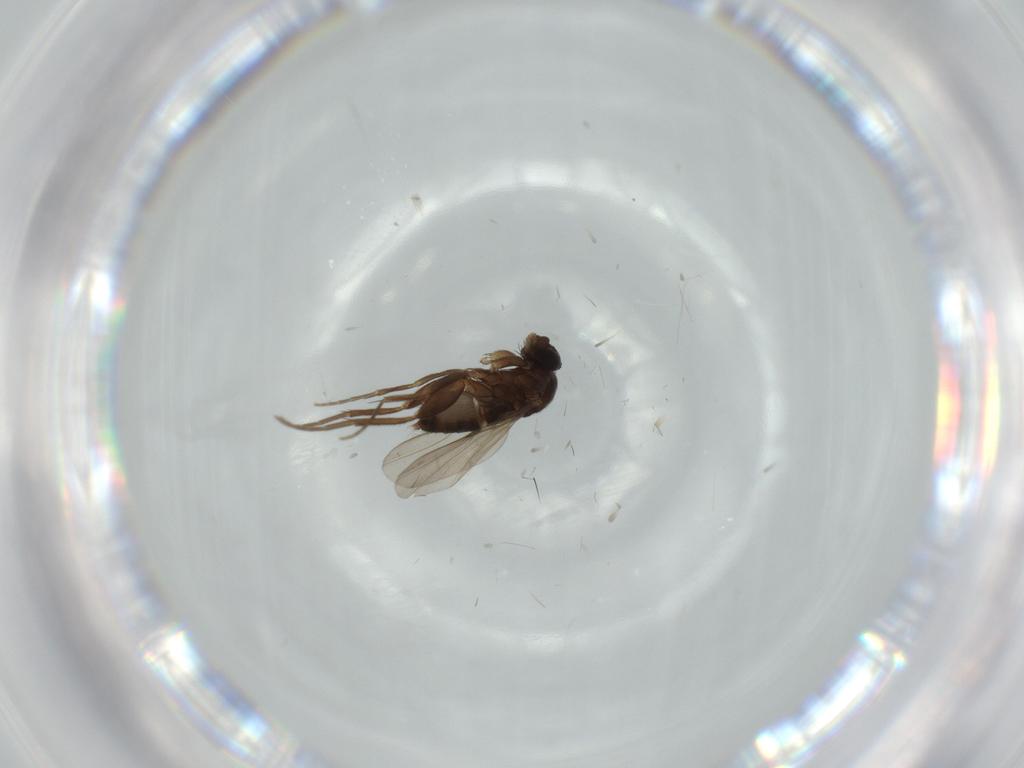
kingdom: Animalia
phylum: Arthropoda
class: Insecta
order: Diptera
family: Phoridae
